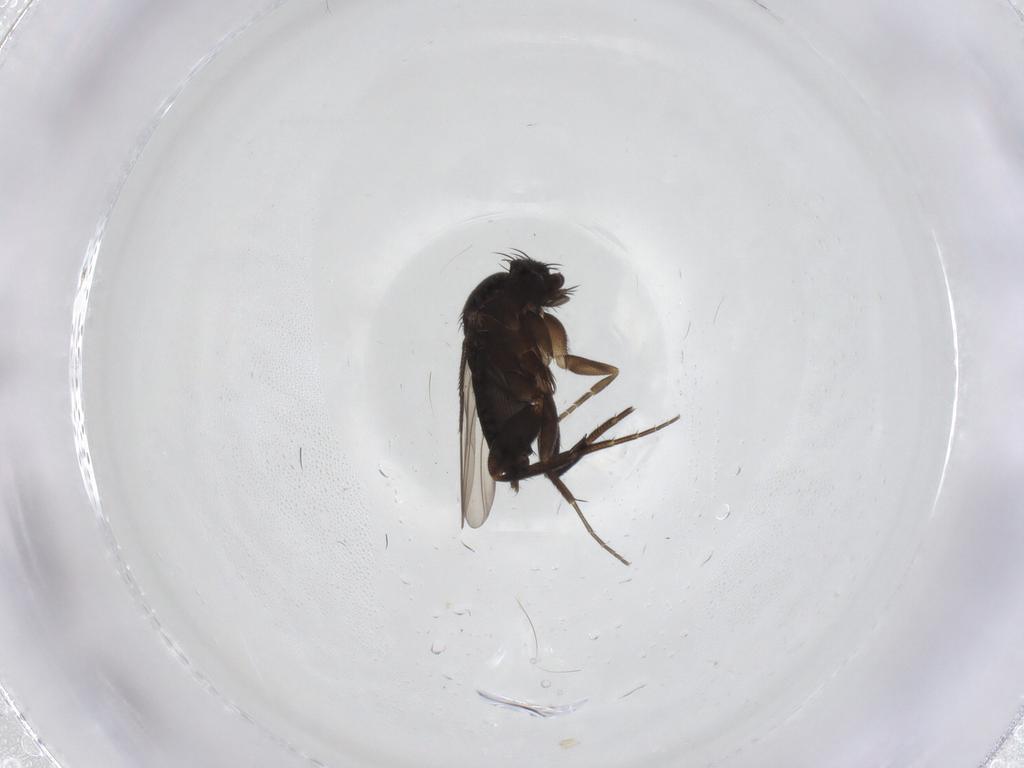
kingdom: Animalia
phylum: Arthropoda
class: Insecta
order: Diptera
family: Phoridae
